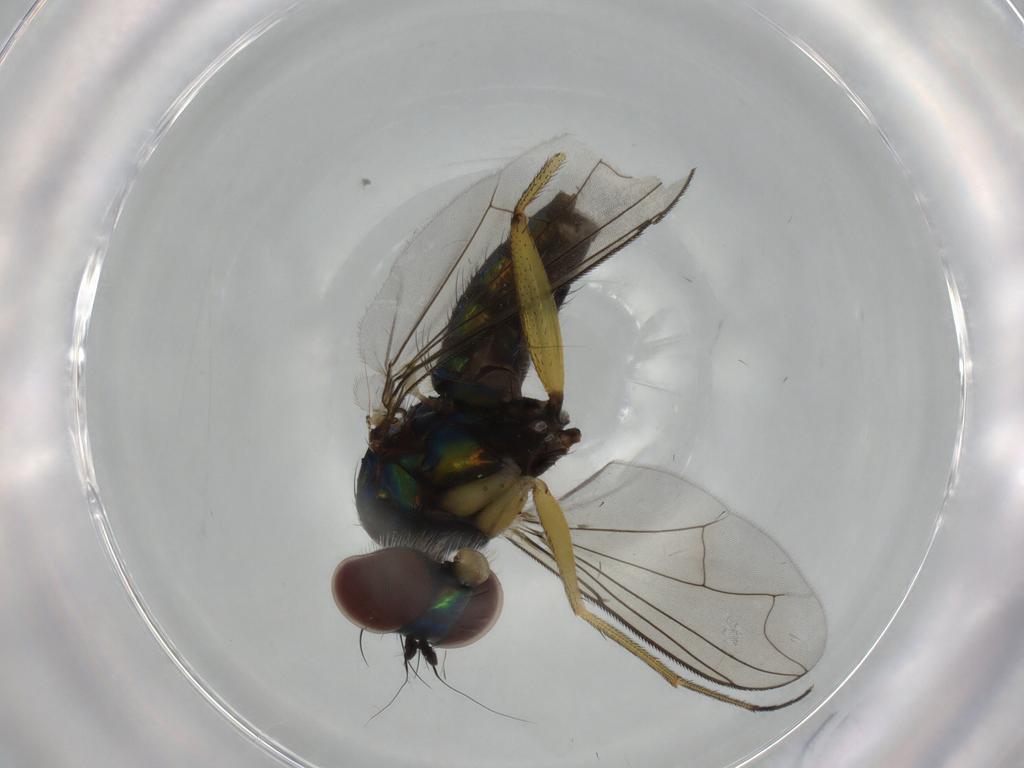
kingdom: Animalia
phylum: Arthropoda
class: Insecta
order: Diptera
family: Dolichopodidae
